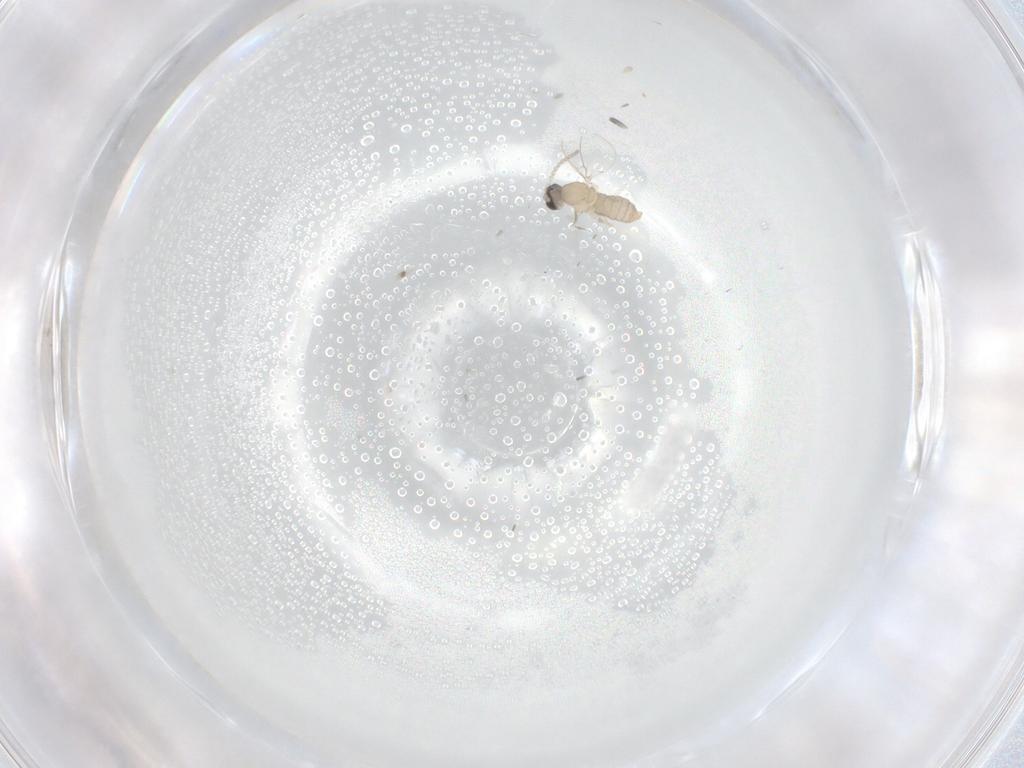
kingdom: Animalia
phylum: Arthropoda
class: Insecta
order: Diptera
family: Cecidomyiidae
